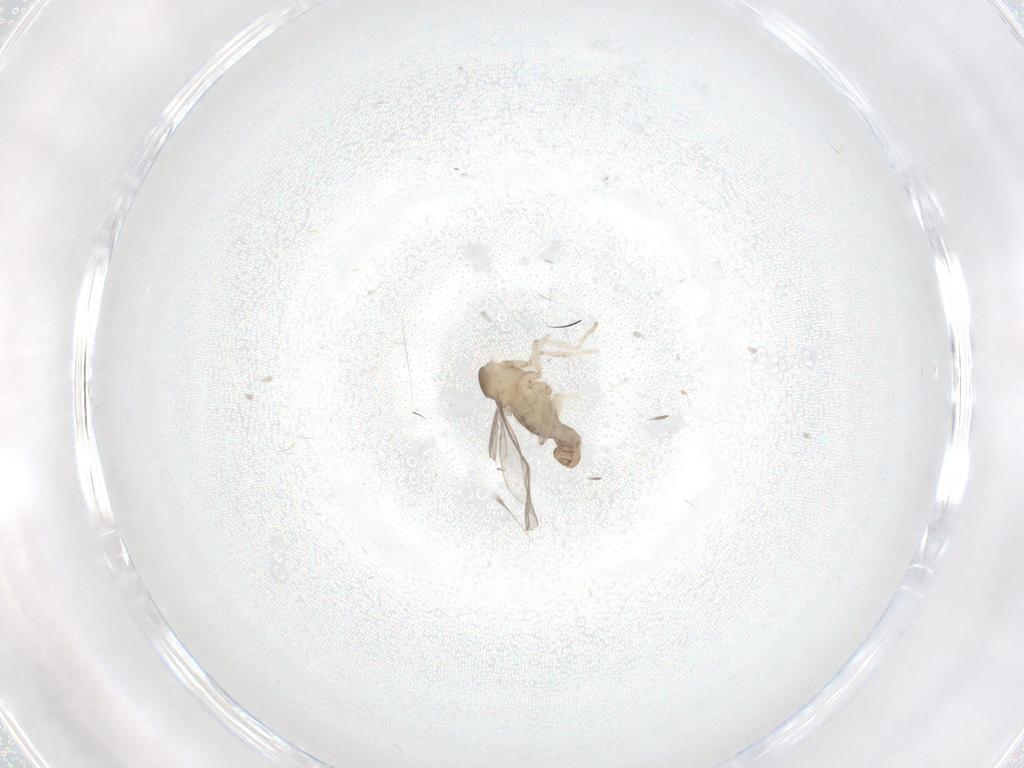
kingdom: Animalia
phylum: Arthropoda
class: Insecta
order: Diptera
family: Cecidomyiidae
